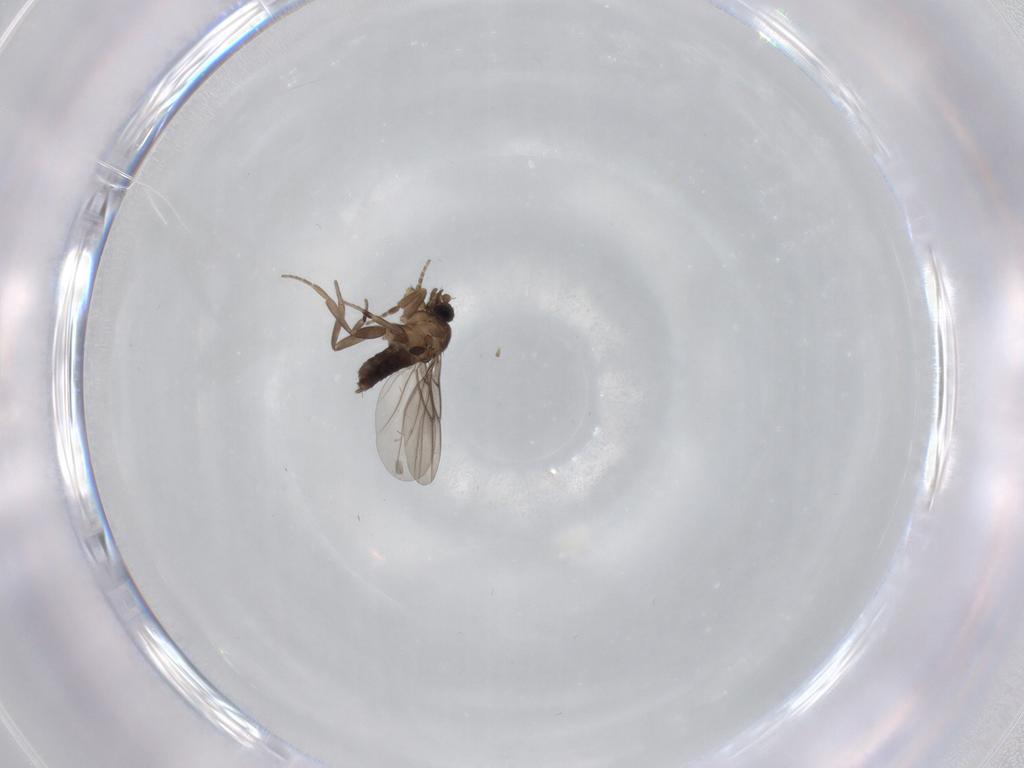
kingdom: Animalia
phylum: Arthropoda
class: Insecta
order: Diptera
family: Phoridae
